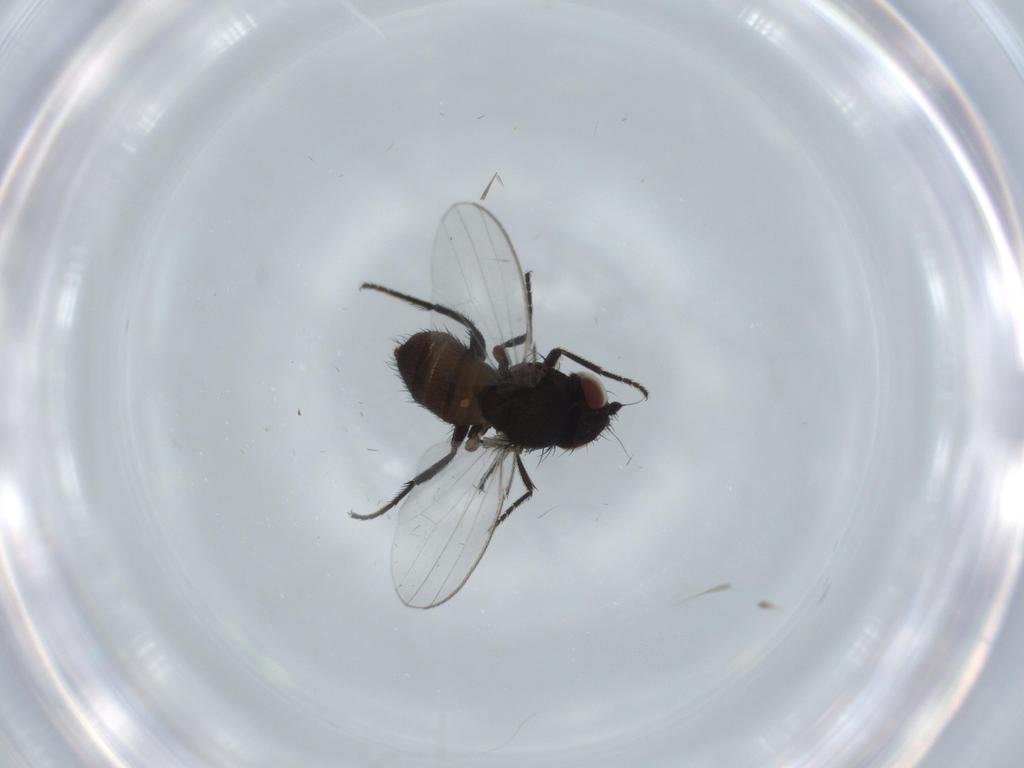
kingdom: Animalia
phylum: Arthropoda
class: Insecta
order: Diptera
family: Milichiidae
